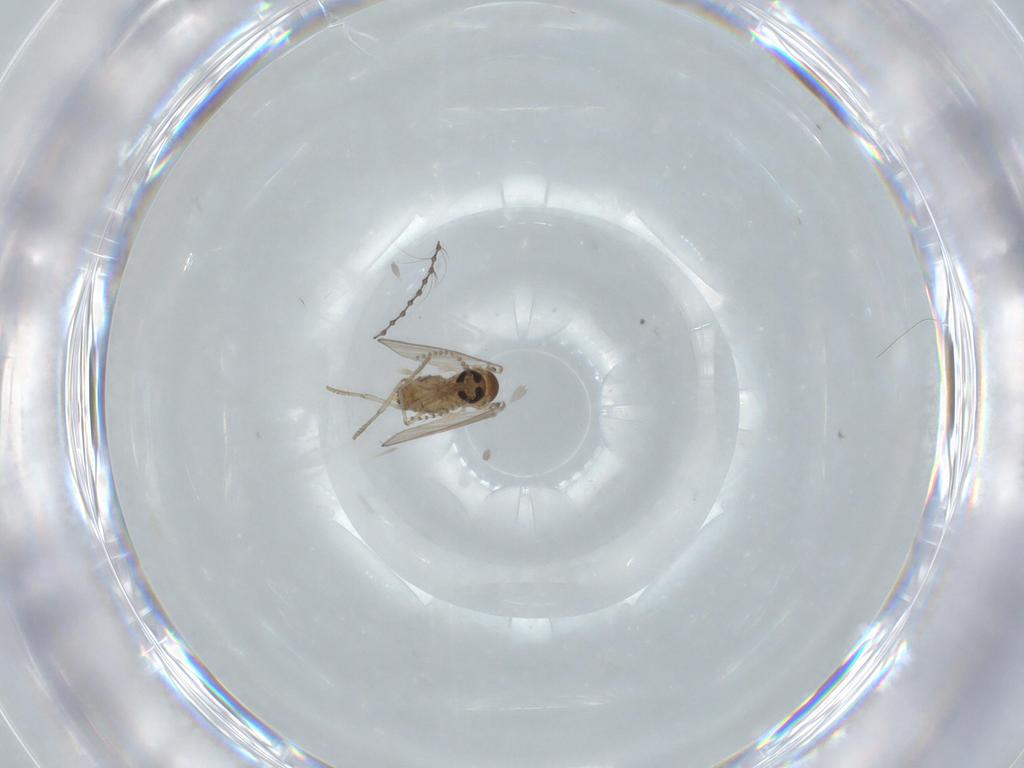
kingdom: Animalia
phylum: Arthropoda
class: Insecta
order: Diptera
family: Psychodidae
